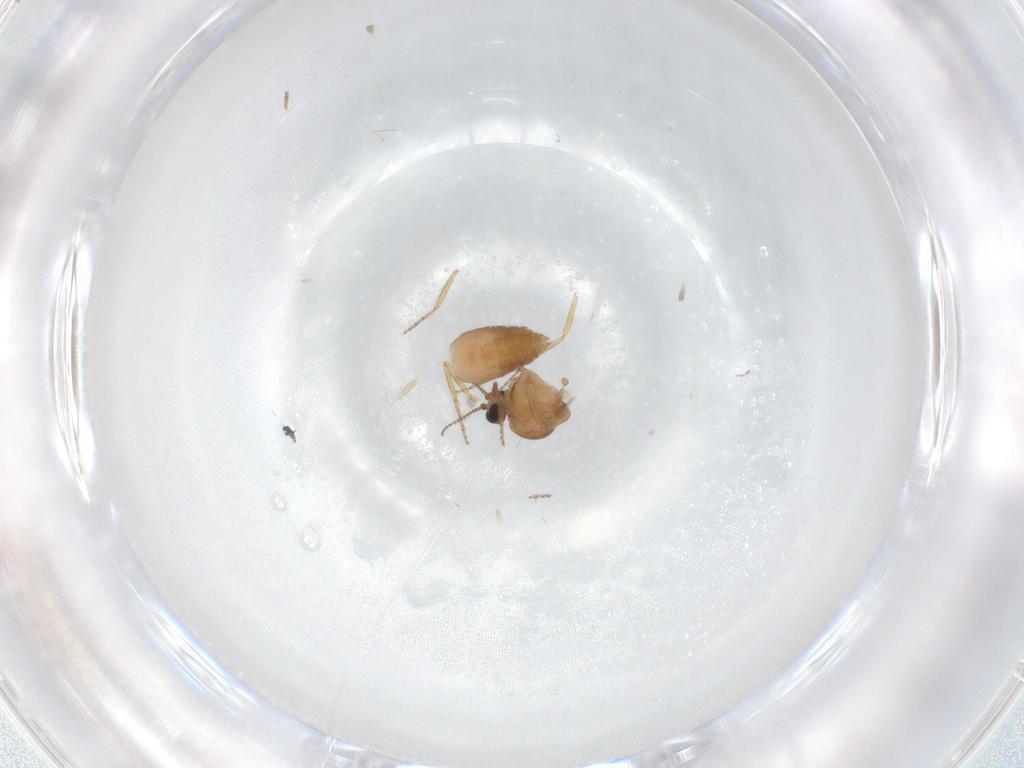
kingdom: Animalia
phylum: Arthropoda
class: Insecta
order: Diptera
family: Ceratopogonidae
